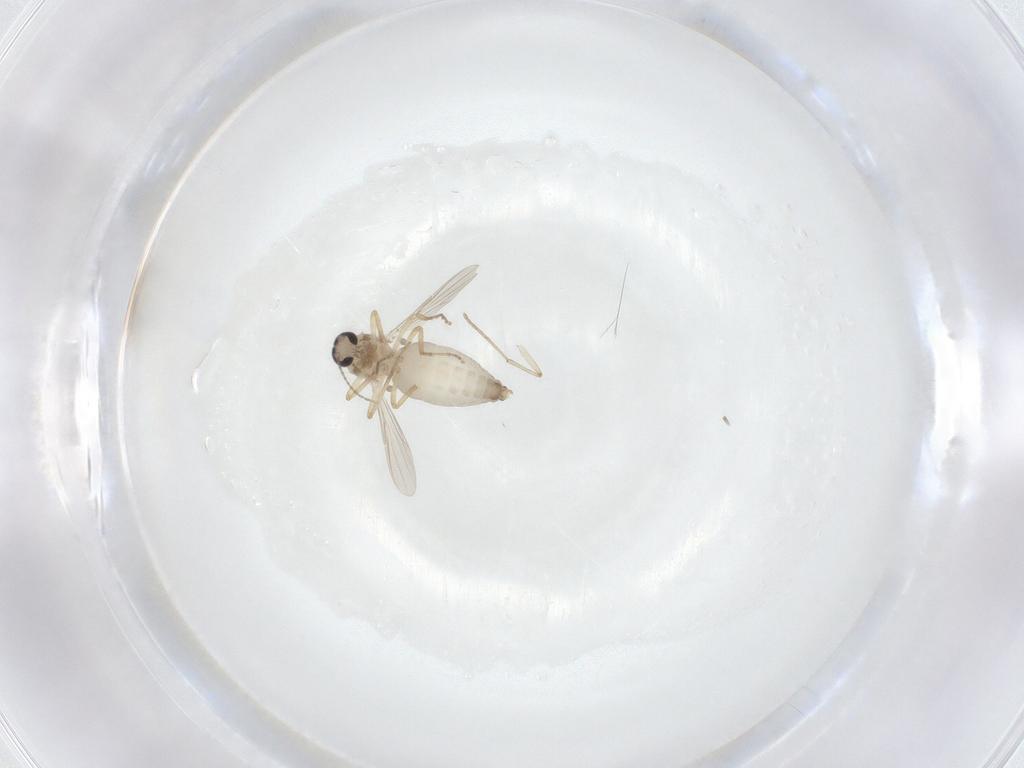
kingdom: Animalia
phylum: Arthropoda
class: Insecta
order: Diptera
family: Ceratopogonidae
